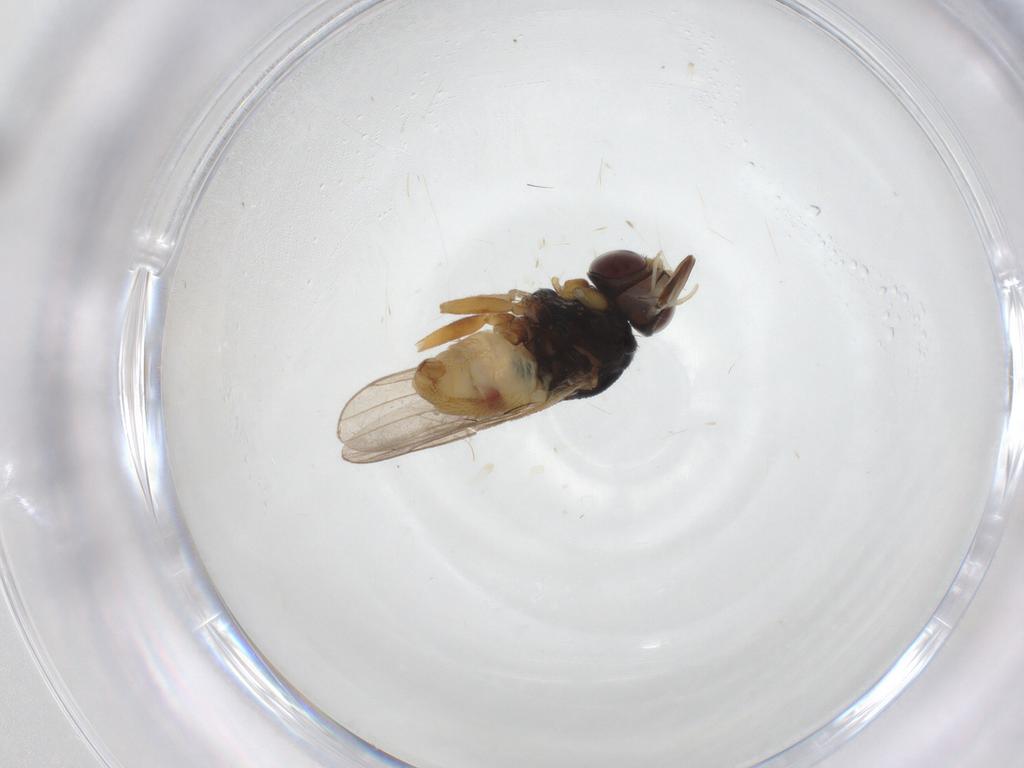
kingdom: Animalia
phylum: Arthropoda
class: Insecta
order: Diptera
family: Chloropidae
